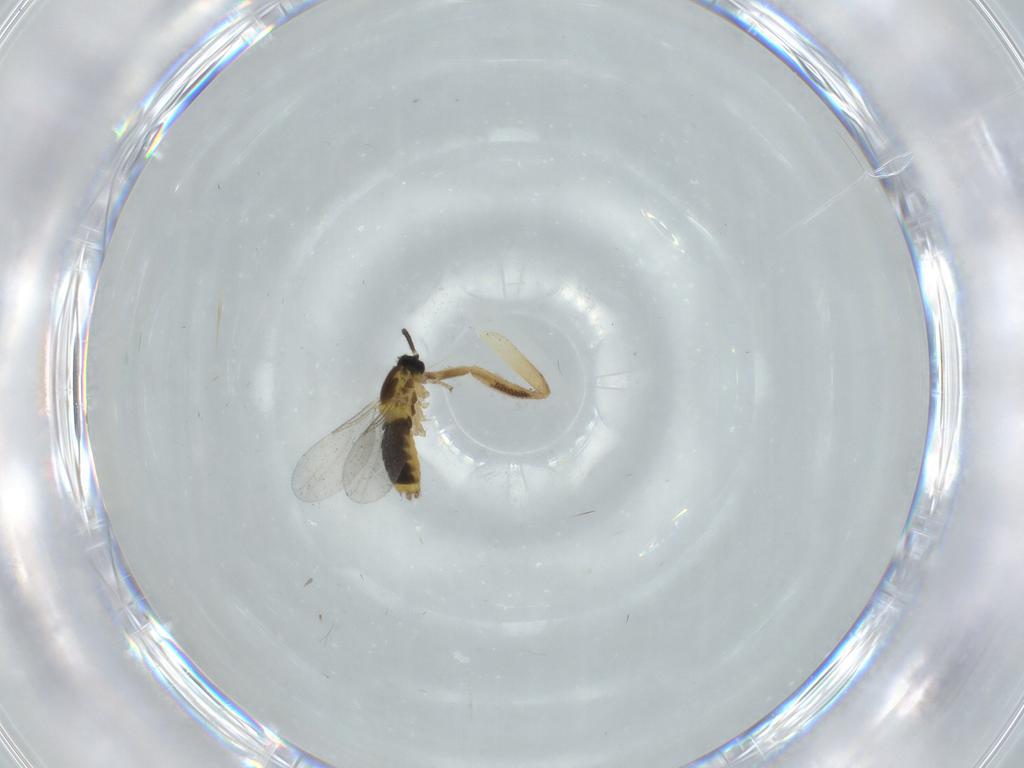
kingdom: Animalia
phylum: Arthropoda
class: Insecta
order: Diptera
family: Scatopsidae
